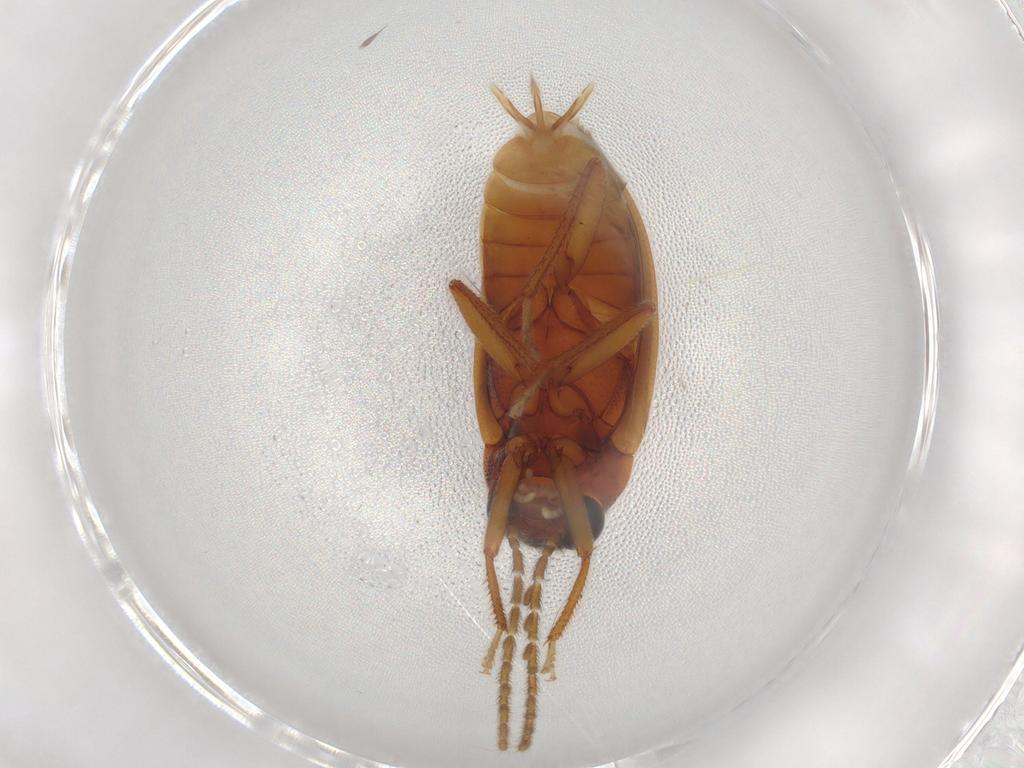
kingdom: Animalia
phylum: Arthropoda
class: Insecta
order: Coleoptera
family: Ptilodactylidae
